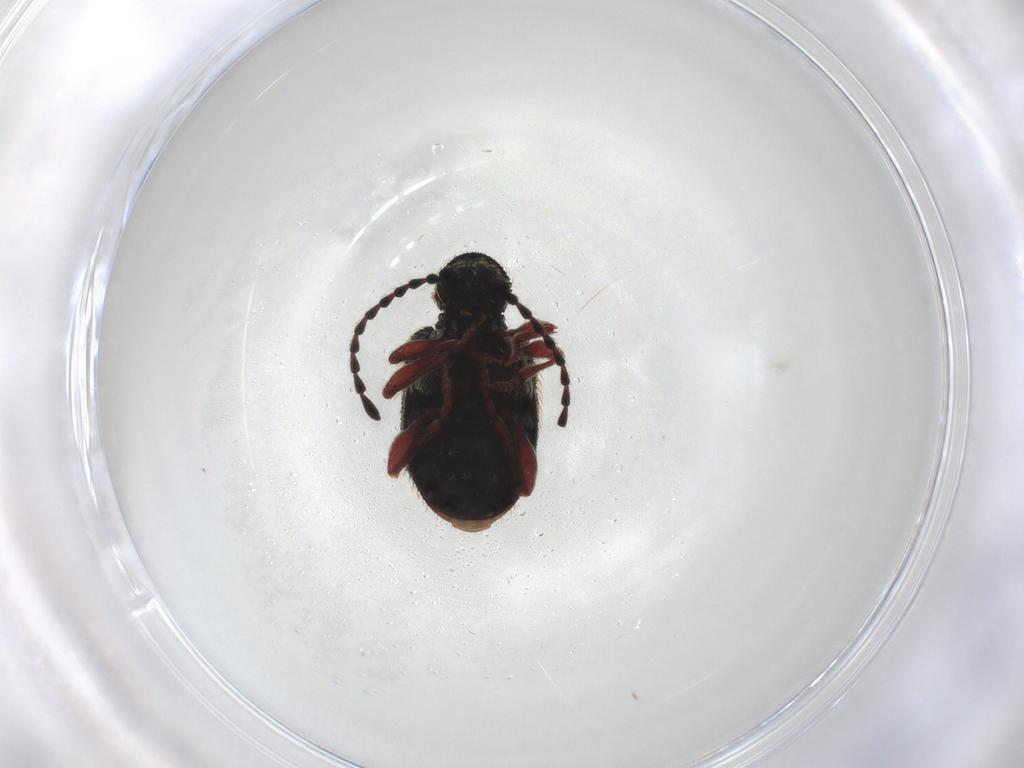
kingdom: Animalia
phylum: Arthropoda
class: Insecta
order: Coleoptera
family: Ptinidae
